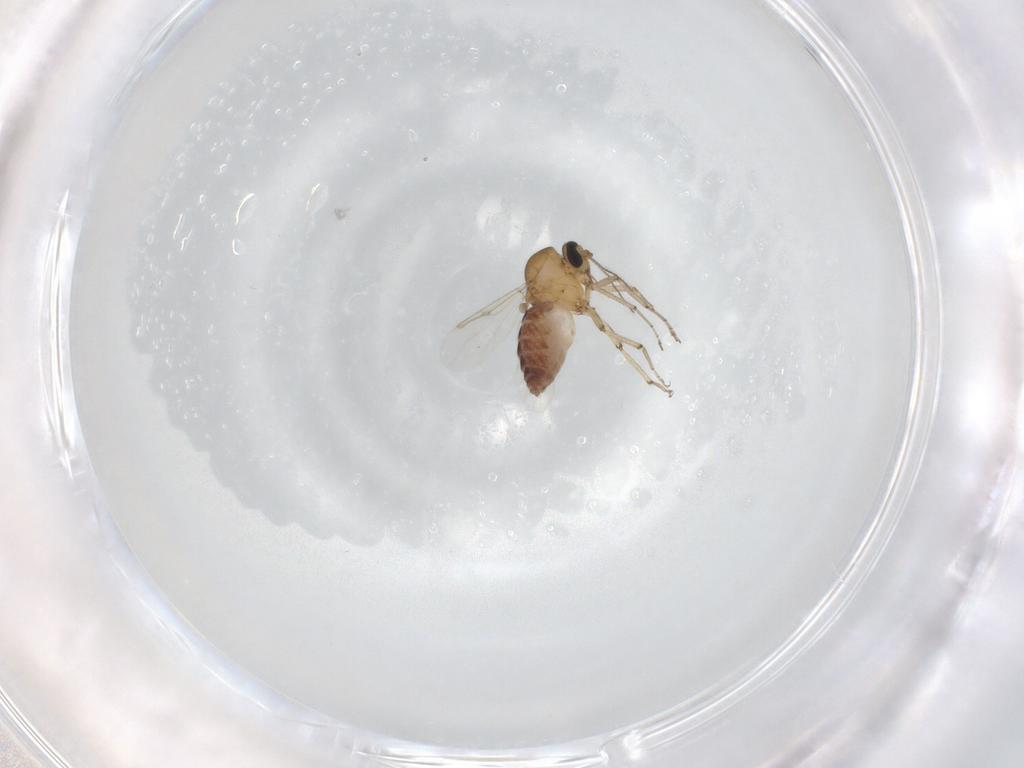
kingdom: Animalia
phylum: Arthropoda
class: Insecta
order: Diptera
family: Ceratopogonidae
